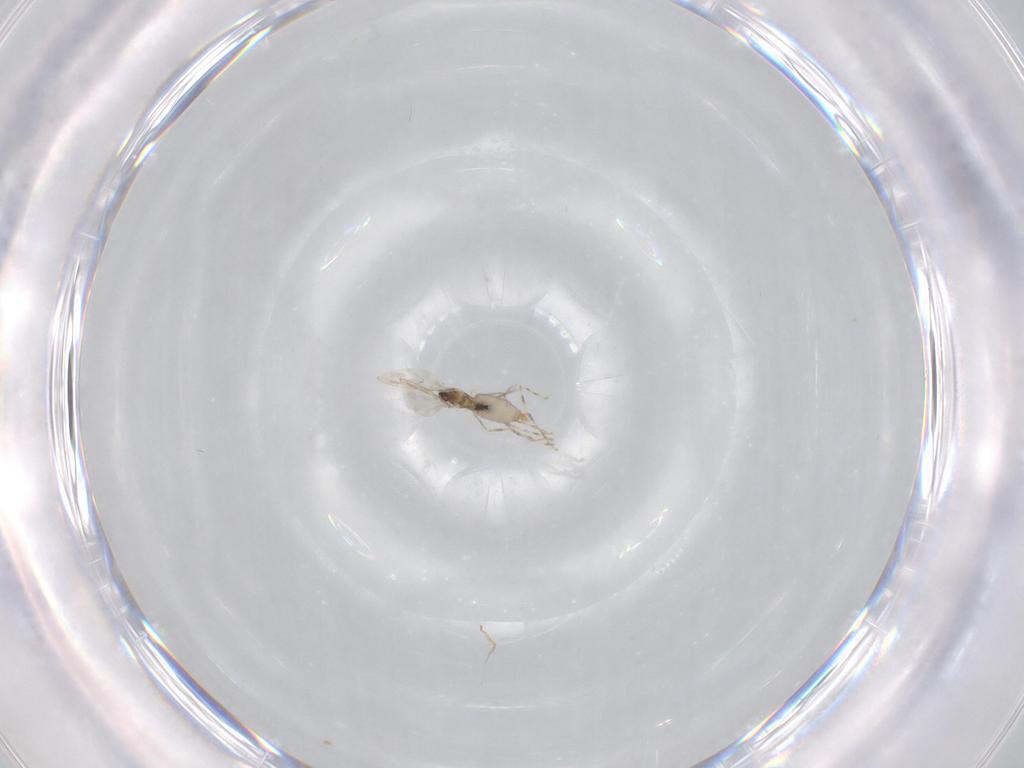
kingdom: Animalia
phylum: Arthropoda
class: Insecta
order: Diptera
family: Cecidomyiidae
